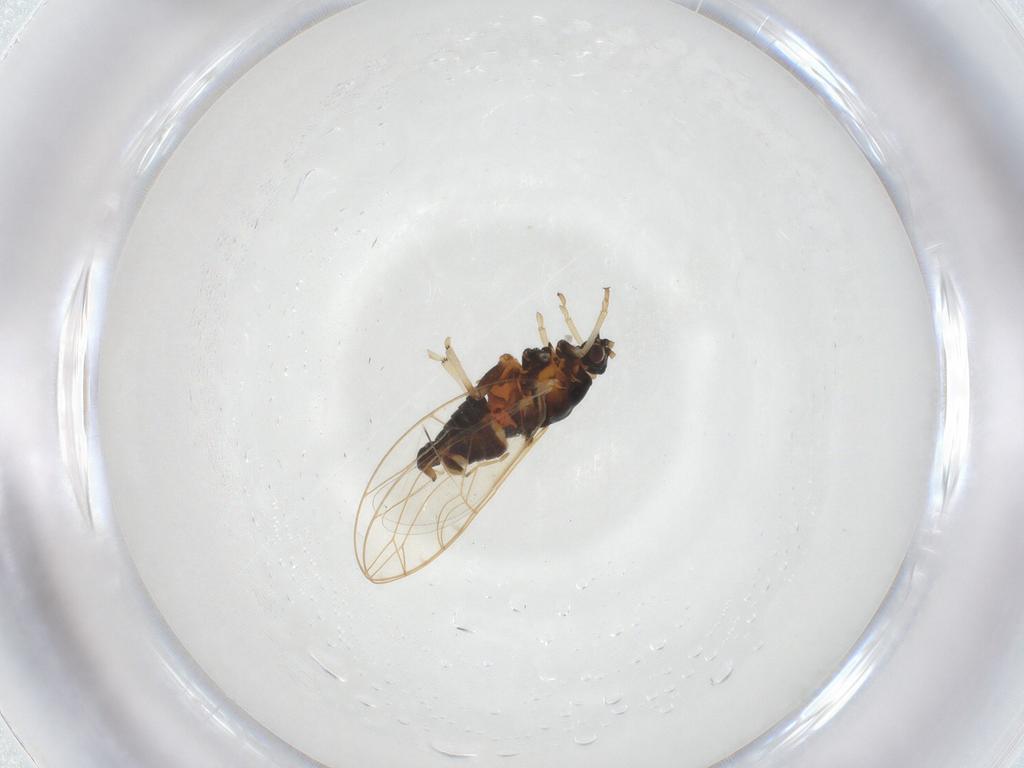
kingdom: Animalia
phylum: Arthropoda
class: Insecta
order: Hemiptera
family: Triozidae
